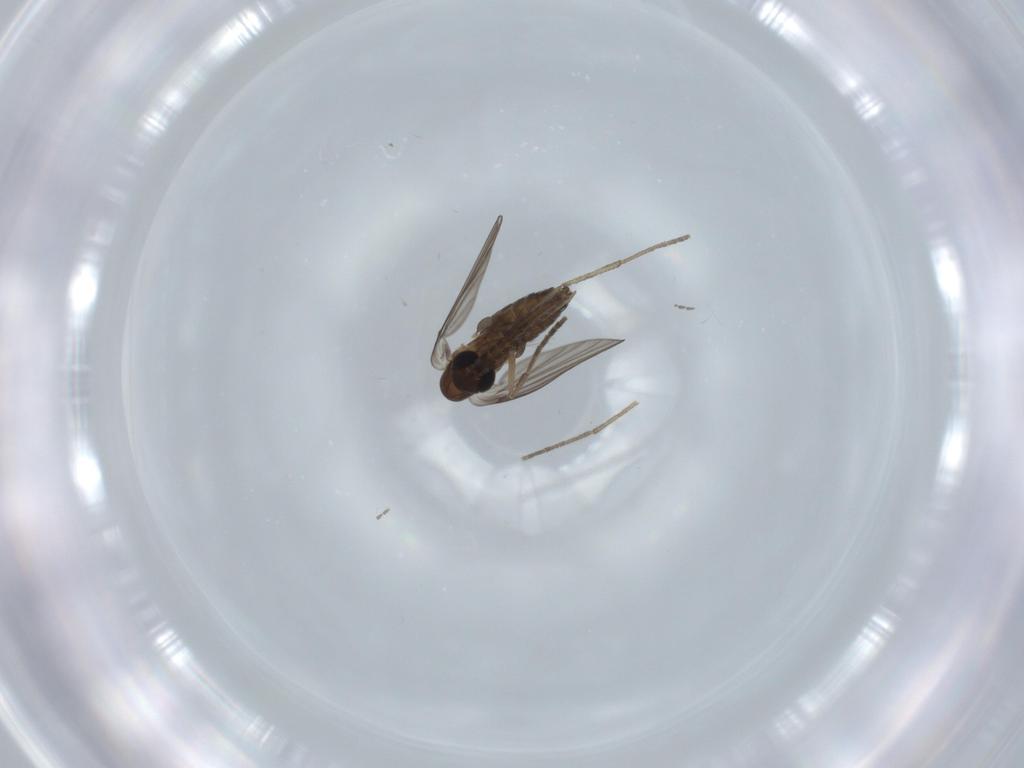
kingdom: Animalia
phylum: Arthropoda
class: Insecta
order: Diptera
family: Psychodidae
